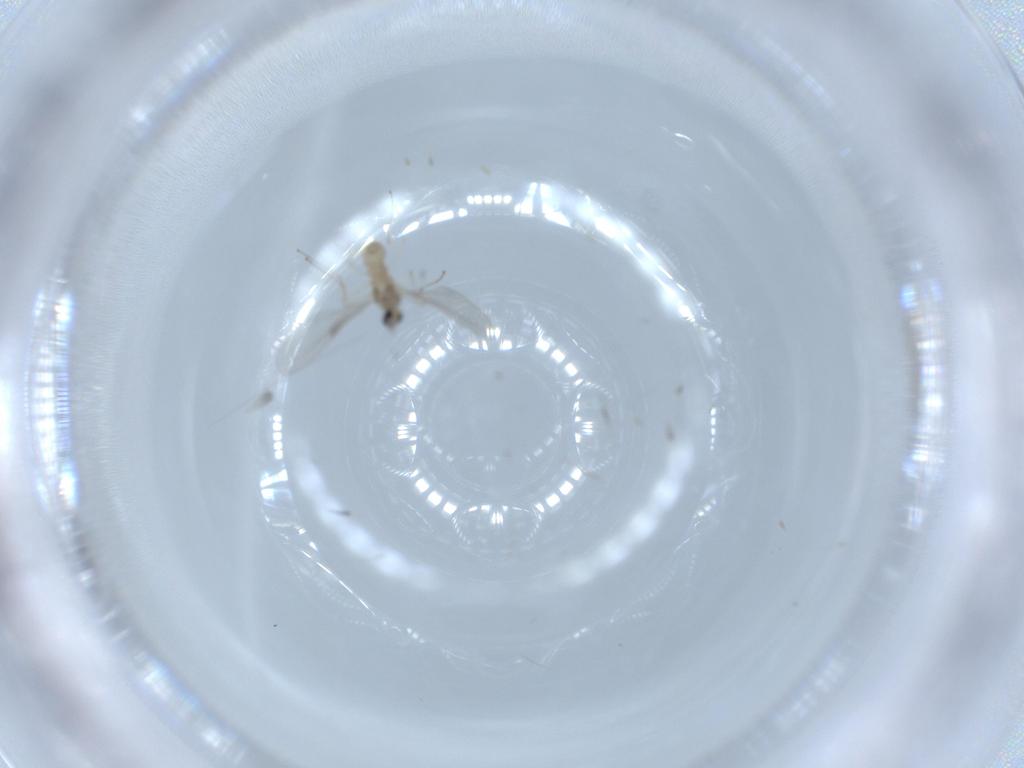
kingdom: Animalia
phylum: Arthropoda
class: Insecta
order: Diptera
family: Cecidomyiidae
